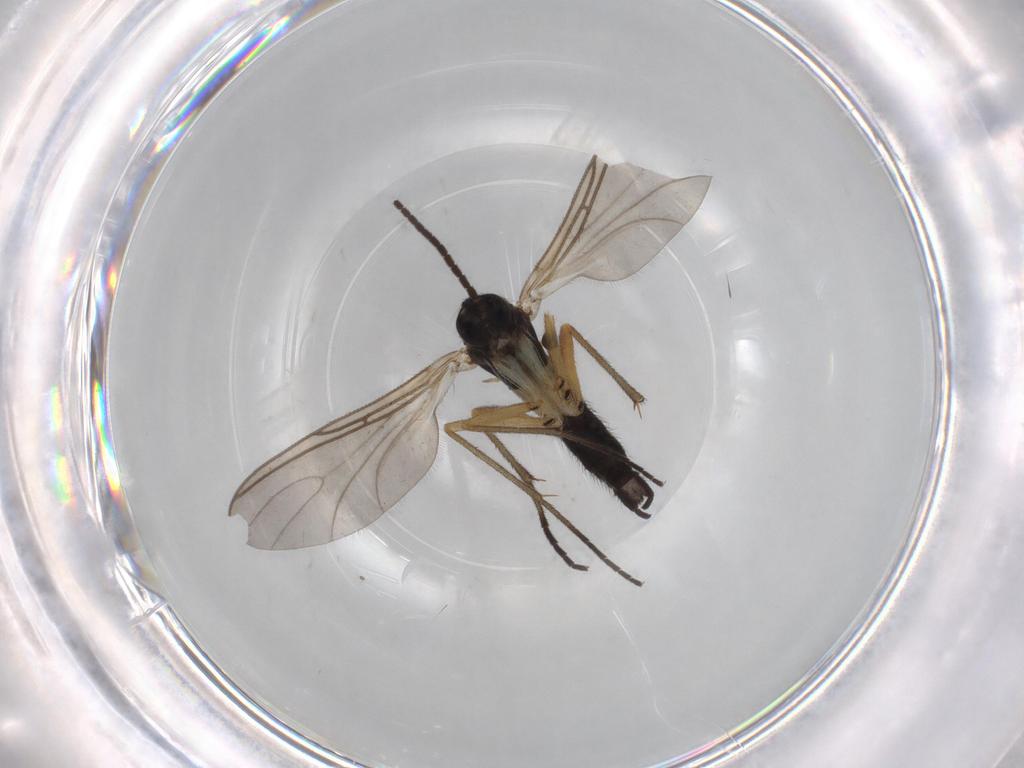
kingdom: Animalia
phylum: Arthropoda
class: Insecta
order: Diptera
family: Sciaridae
